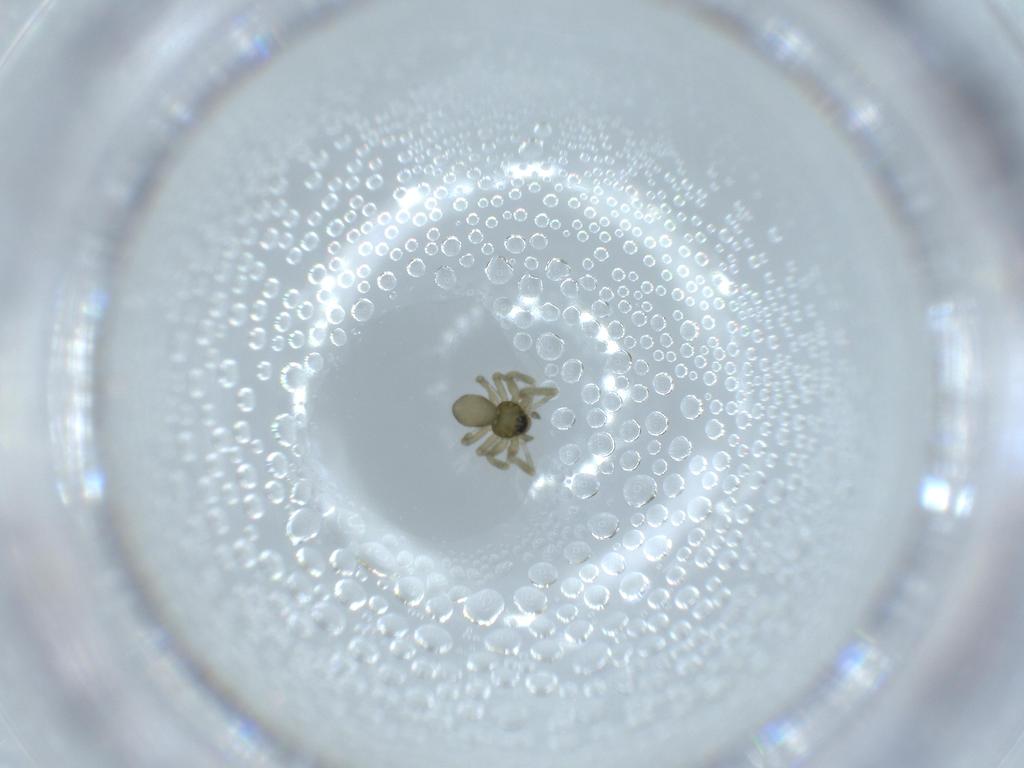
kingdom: Animalia
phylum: Arthropoda
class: Arachnida
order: Araneae
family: Linyphiidae
